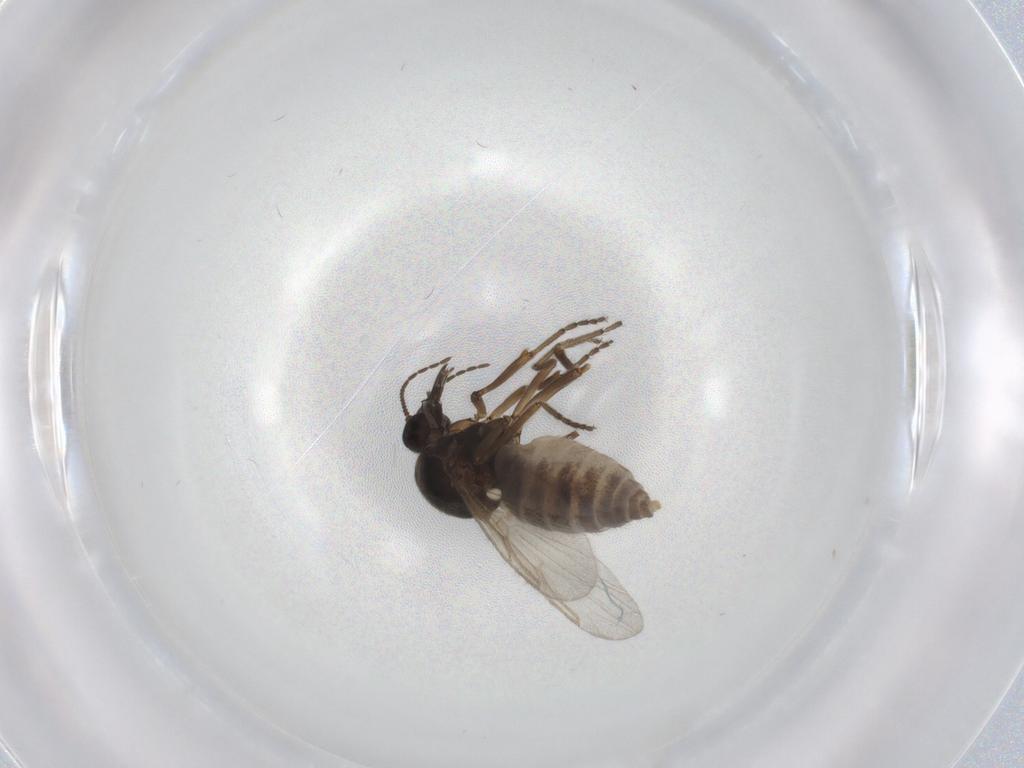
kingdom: Animalia
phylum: Arthropoda
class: Insecta
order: Diptera
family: Ceratopogonidae
